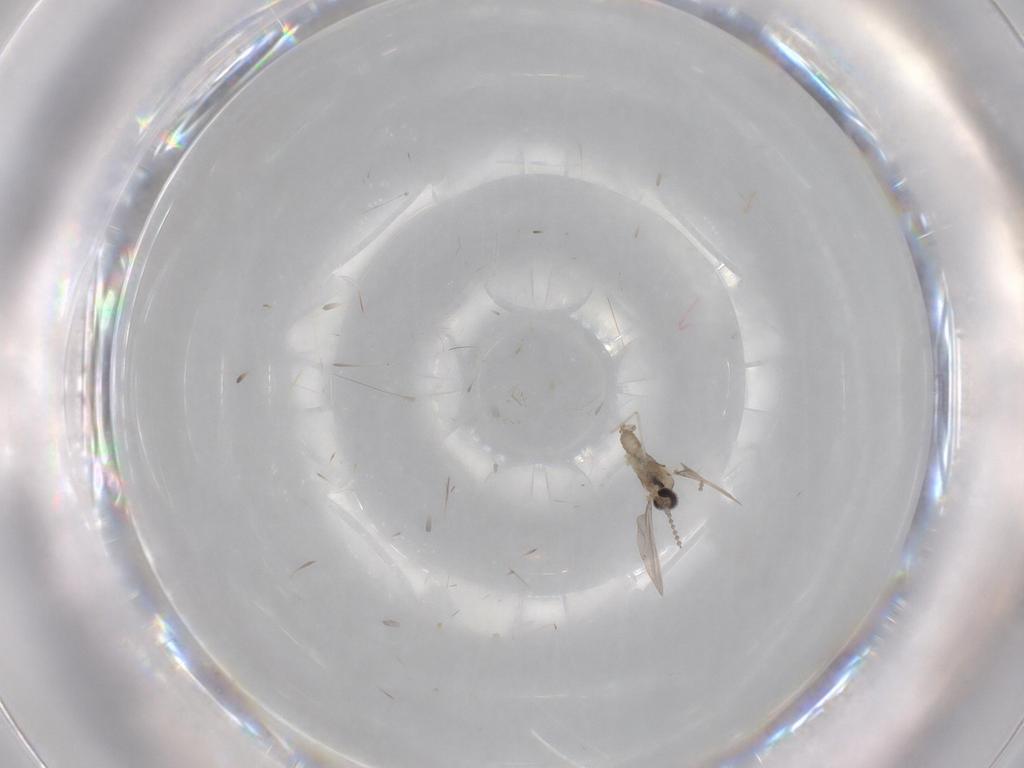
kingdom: Animalia
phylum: Arthropoda
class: Insecta
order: Diptera
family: Cecidomyiidae
